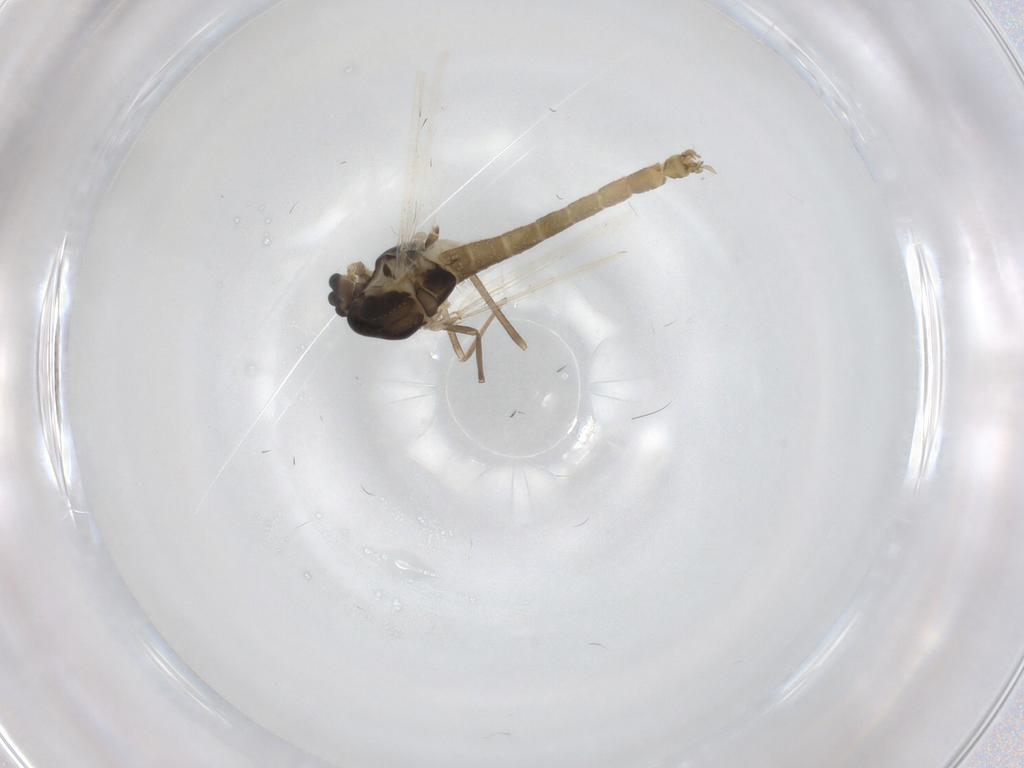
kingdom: Animalia
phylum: Arthropoda
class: Insecta
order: Diptera
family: Chironomidae
